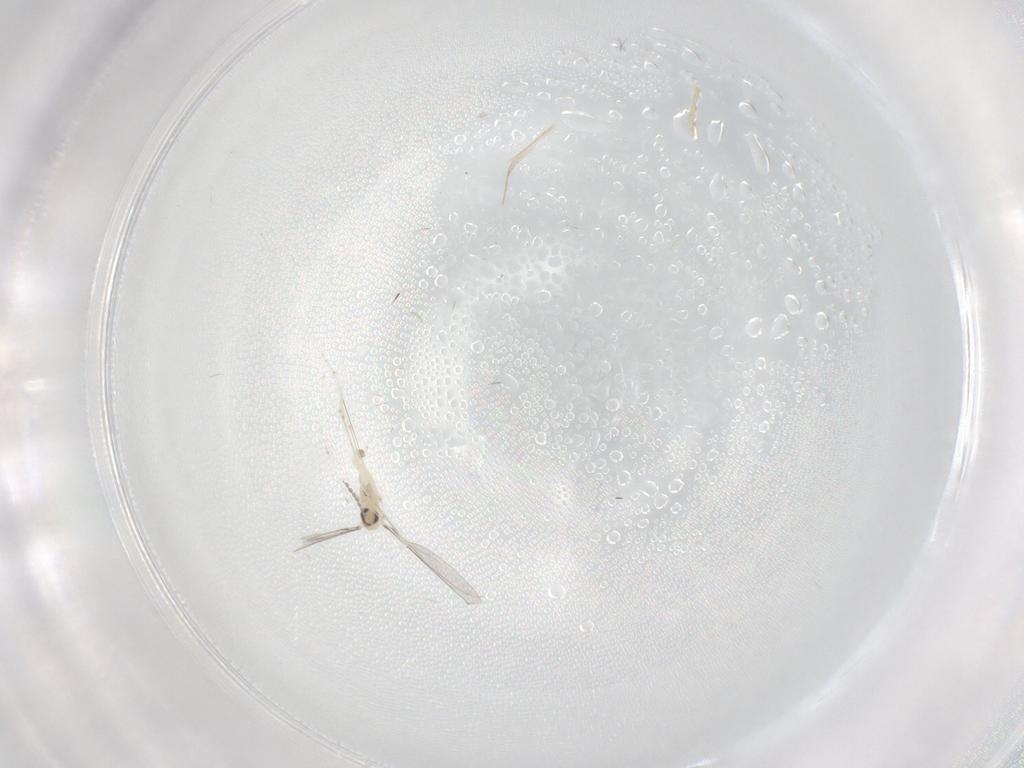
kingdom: Animalia
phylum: Arthropoda
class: Insecta
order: Diptera
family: Cecidomyiidae
